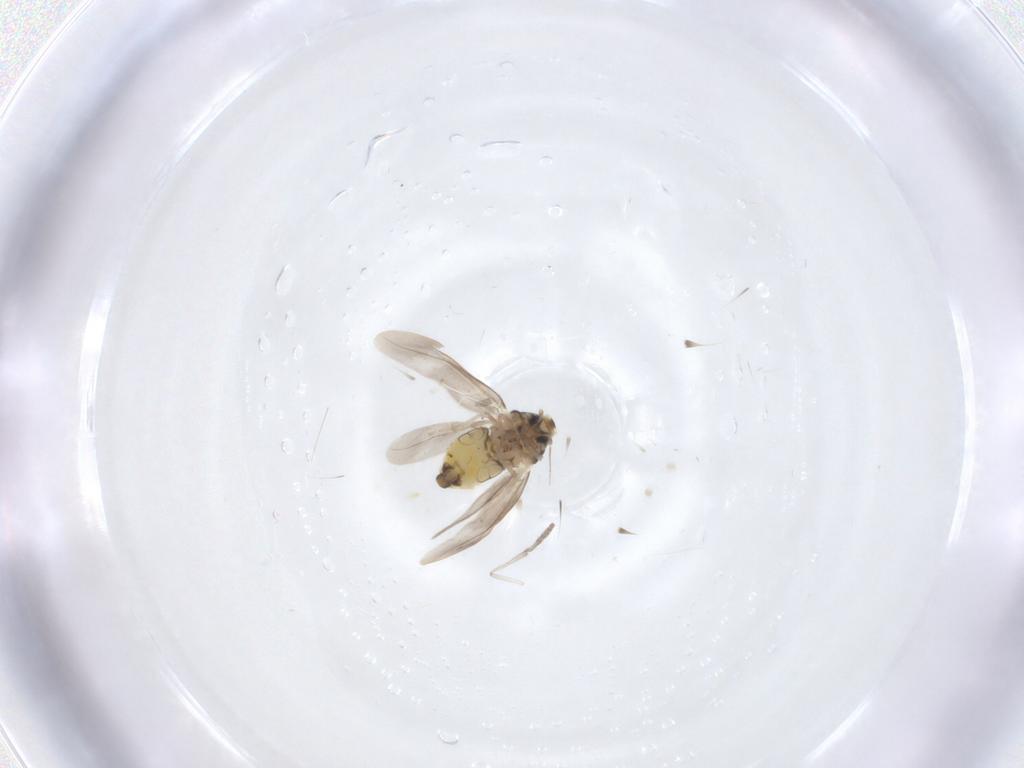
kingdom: Animalia
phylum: Arthropoda
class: Insecta
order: Hemiptera
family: Aleyrodidae
